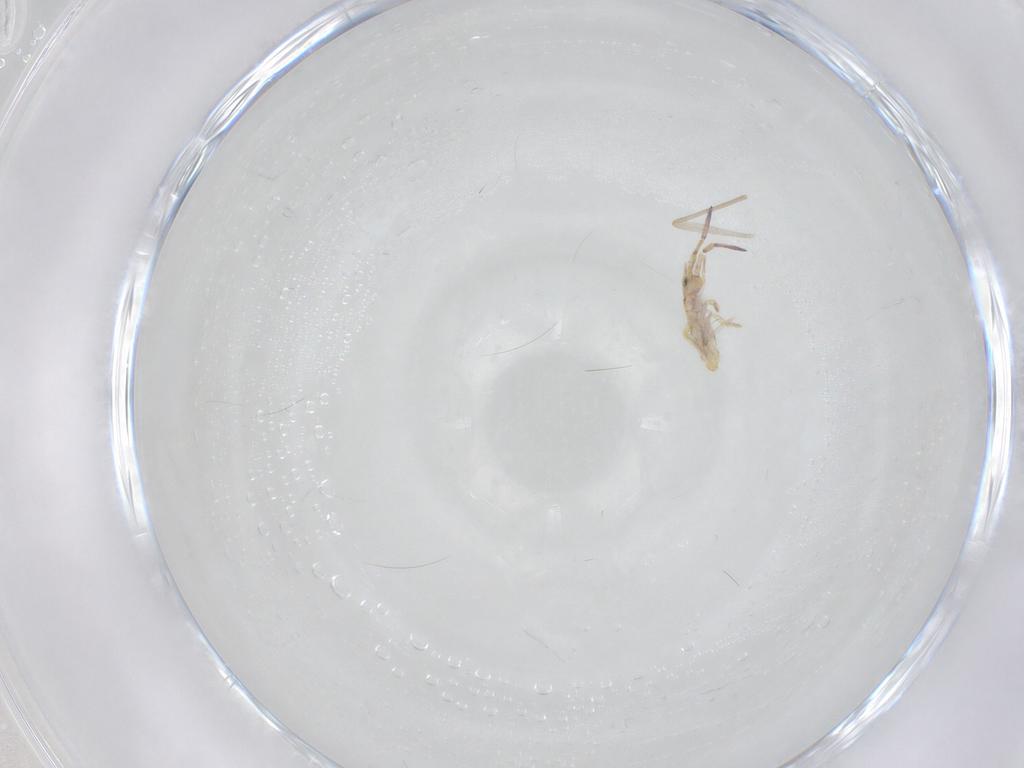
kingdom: Animalia
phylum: Arthropoda
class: Collembola
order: Entomobryomorpha
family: Entomobryidae
